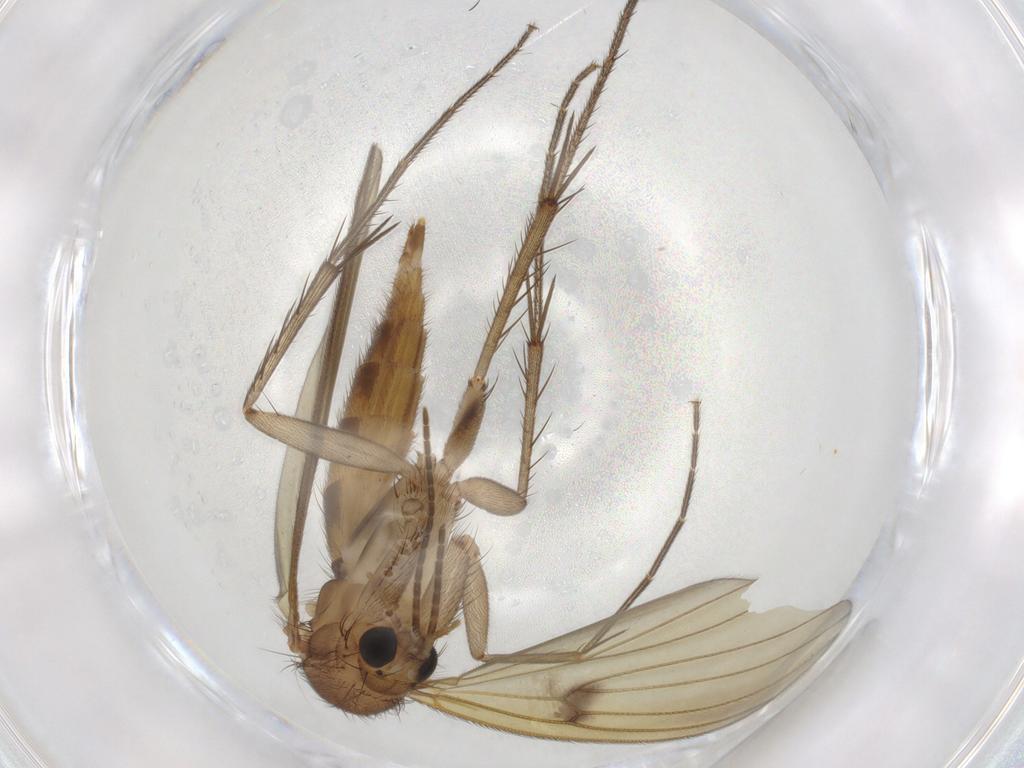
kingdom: Animalia
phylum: Arthropoda
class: Insecta
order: Diptera
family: Mycetophilidae
